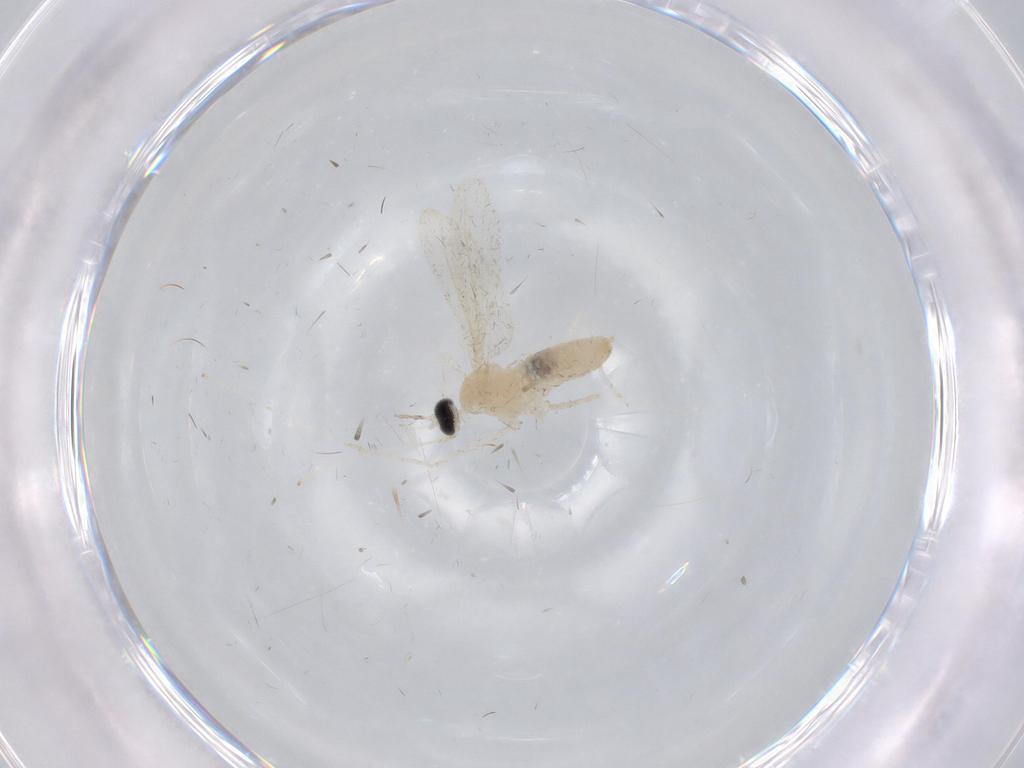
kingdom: Animalia
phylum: Arthropoda
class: Insecta
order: Diptera
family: Cecidomyiidae
